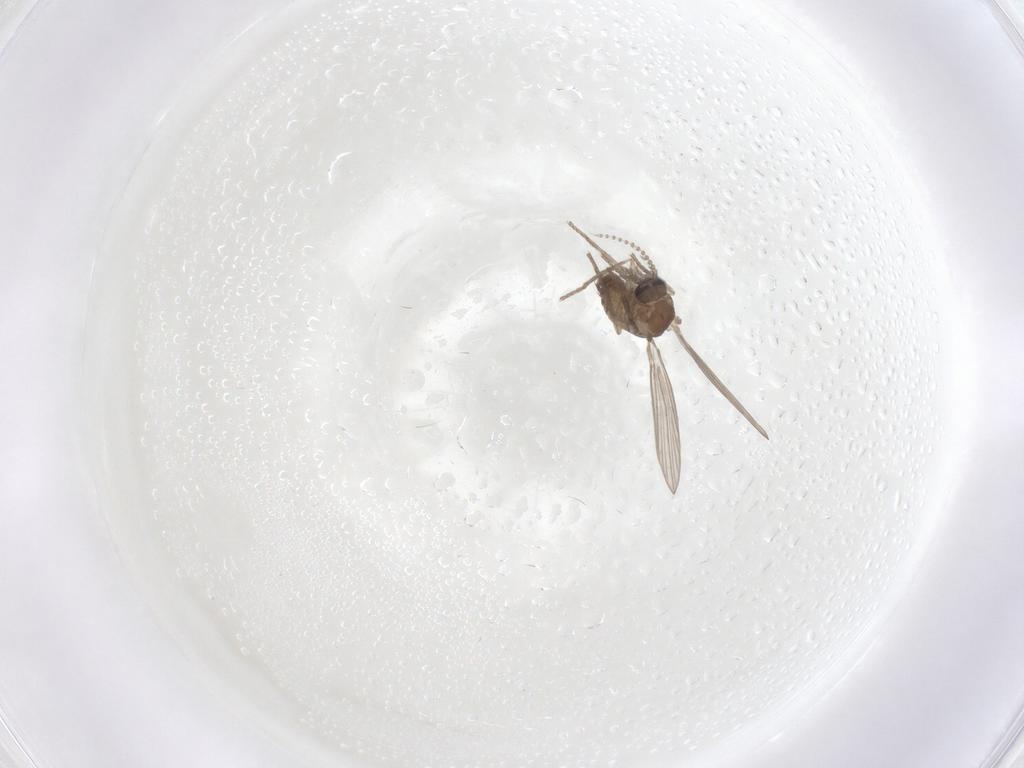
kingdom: Animalia
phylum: Arthropoda
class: Insecta
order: Diptera
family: Psychodidae
